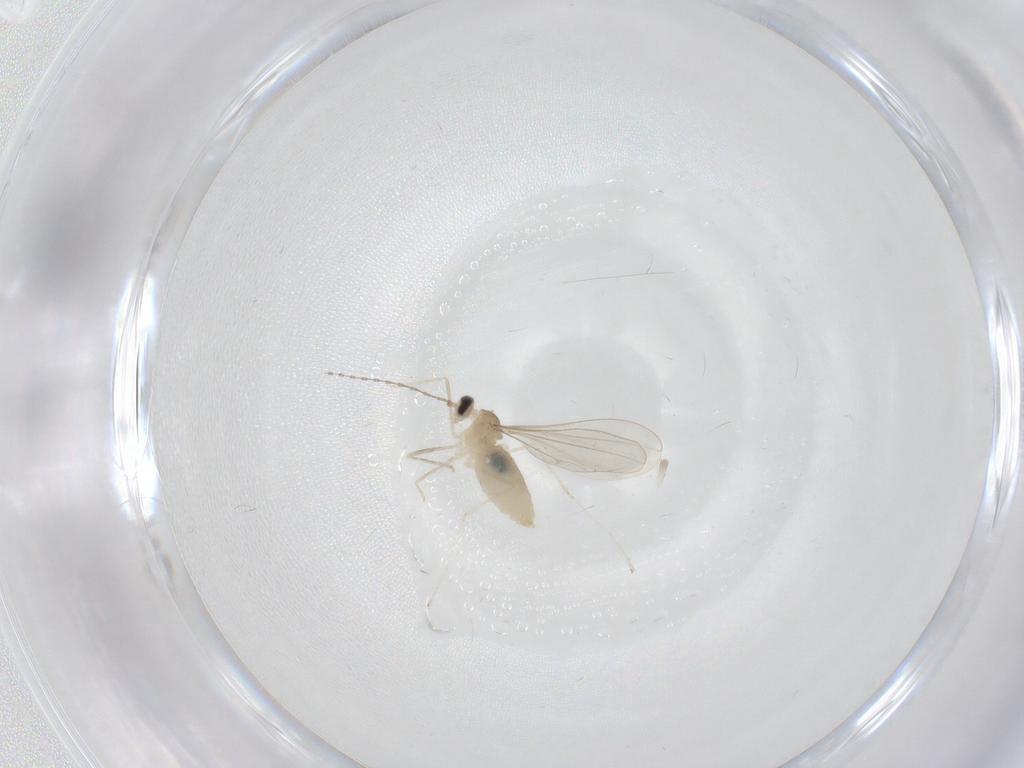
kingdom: Animalia
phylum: Arthropoda
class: Insecta
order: Diptera
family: Cecidomyiidae
